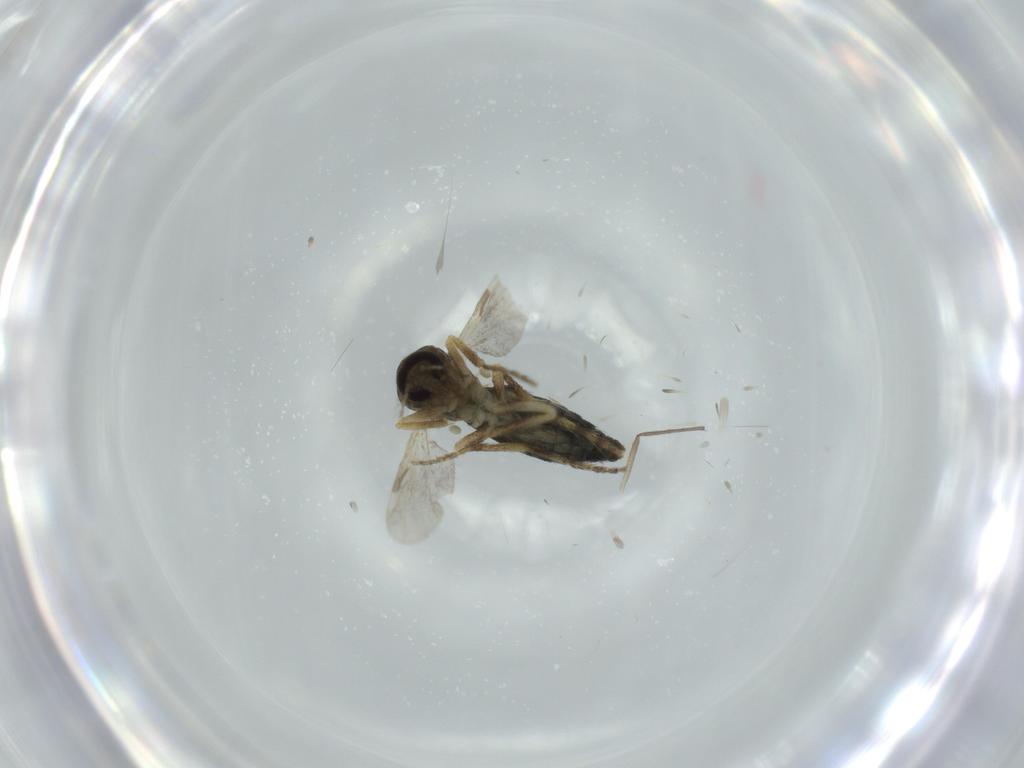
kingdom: Animalia
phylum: Arthropoda
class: Insecta
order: Diptera
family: Ceratopogonidae
